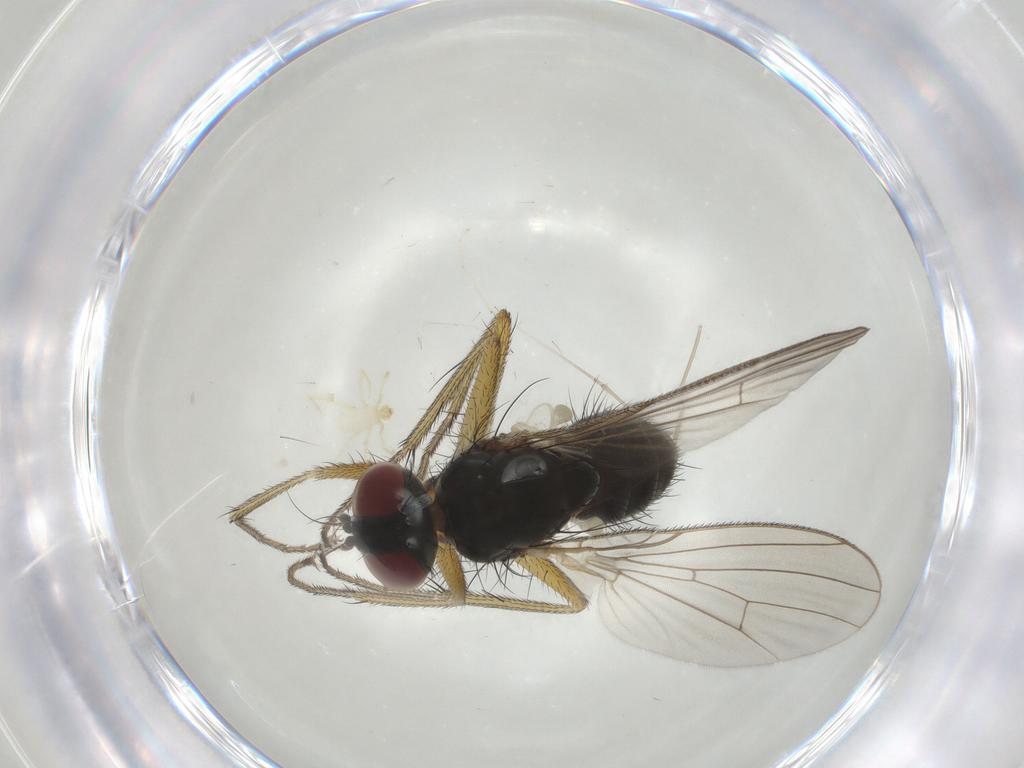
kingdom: Animalia
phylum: Arthropoda
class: Insecta
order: Diptera
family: Muscidae
